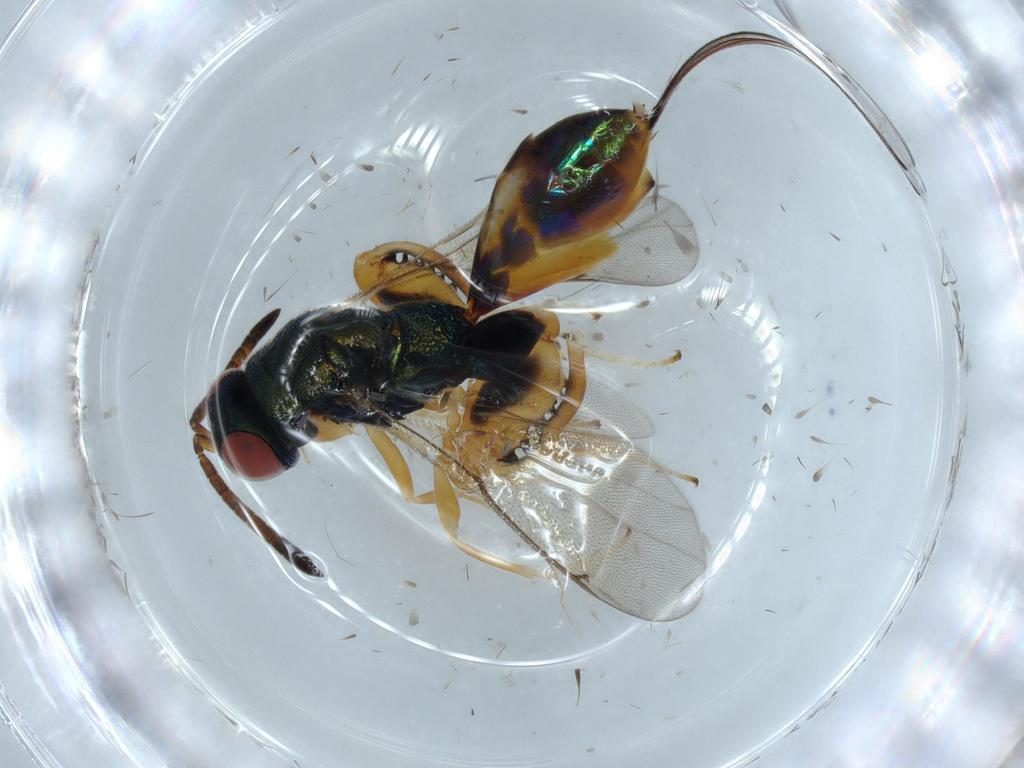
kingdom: Animalia
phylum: Arthropoda
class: Insecta
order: Hymenoptera
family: Torymidae
